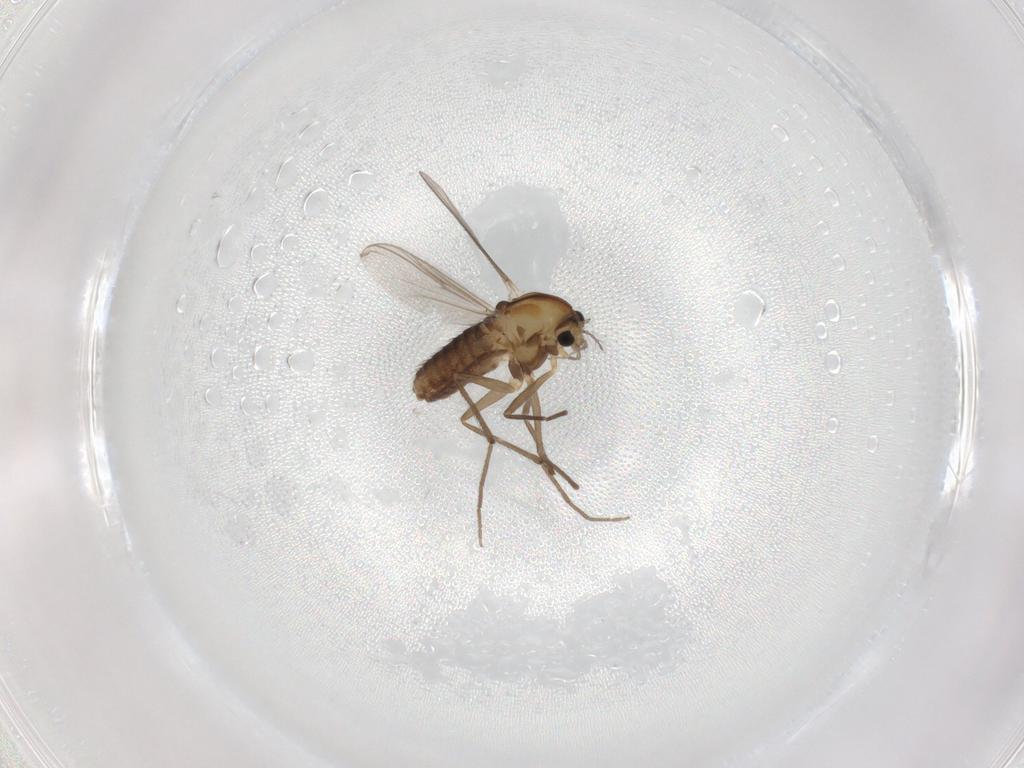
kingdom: Animalia
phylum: Arthropoda
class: Insecta
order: Diptera
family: Chironomidae
